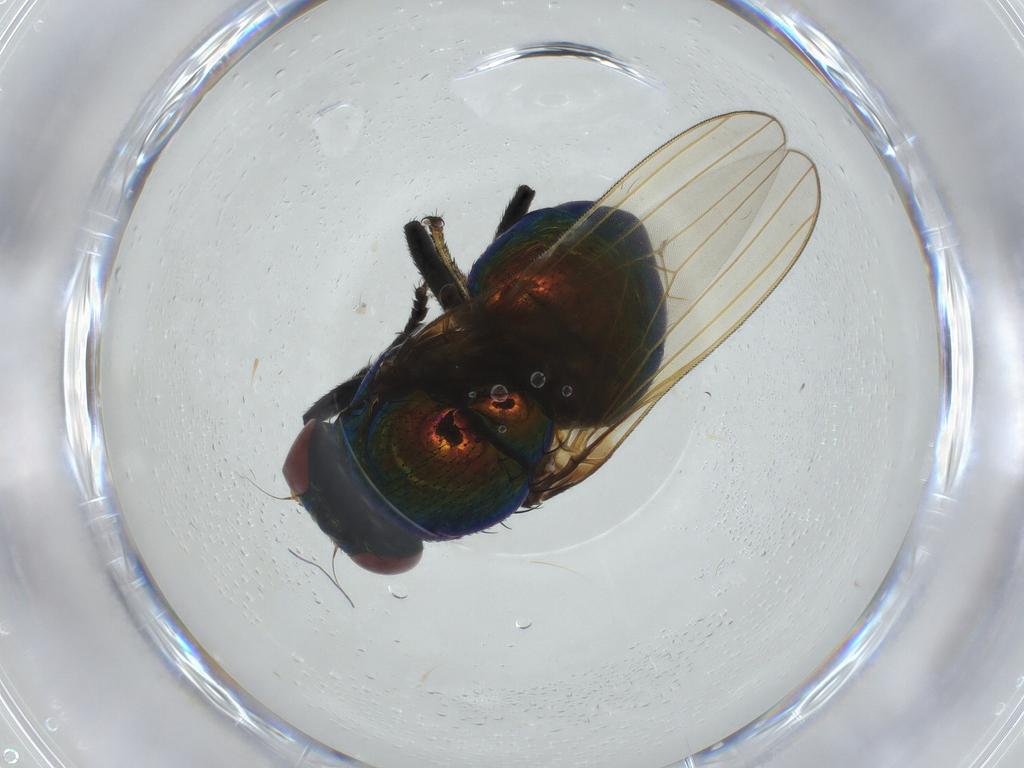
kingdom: Animalia
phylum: Arthropoda
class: Insecta
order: Diptera
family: Lauxaniidae
